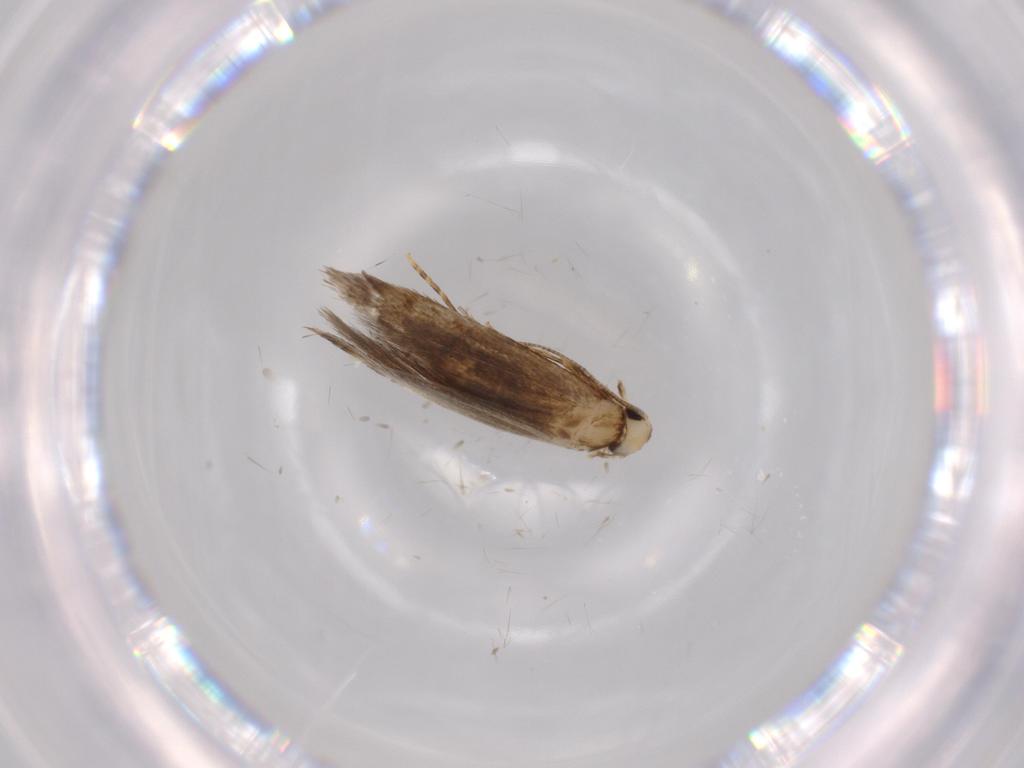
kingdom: Animalia
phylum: Arthropoda
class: Insecta
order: Lepidoptera
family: Tineidae
